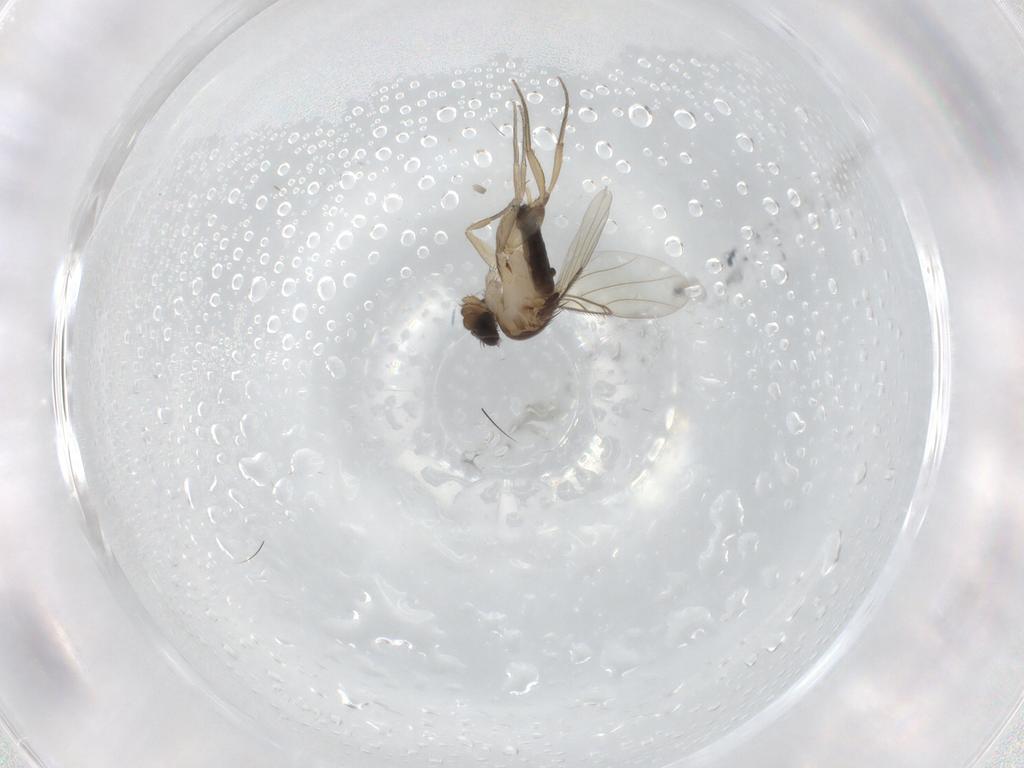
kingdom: Animalia
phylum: Arthropoda
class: Insecta
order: Diptera
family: Phoridae
